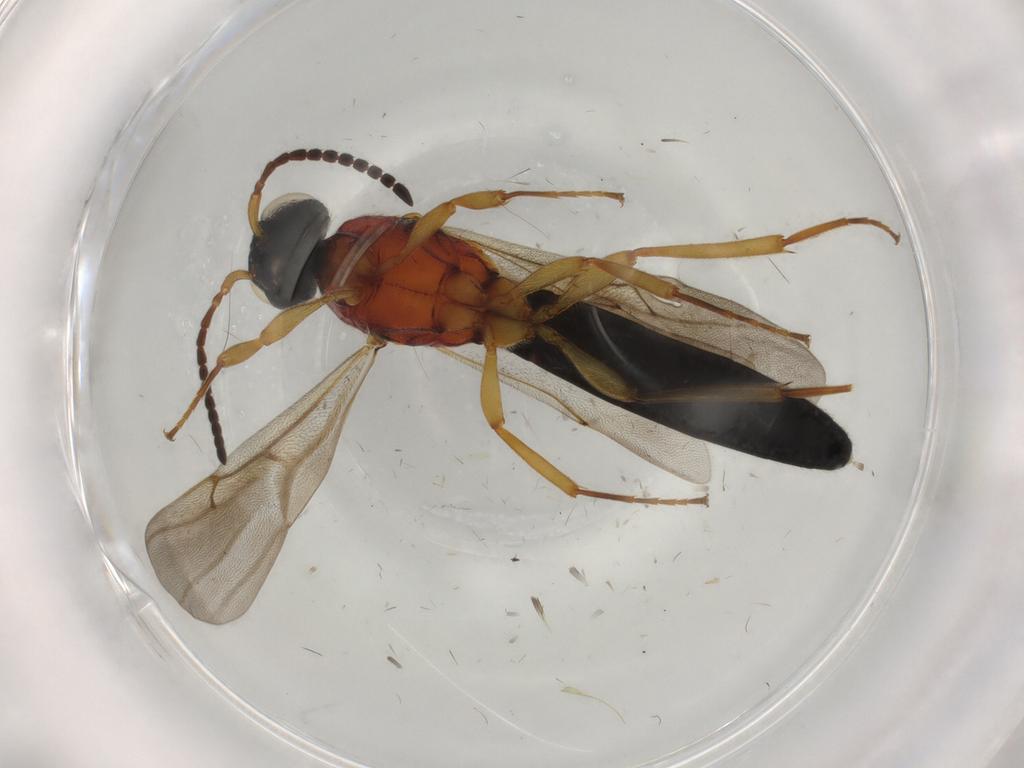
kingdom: Animalia
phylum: Arthropoda
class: Insecta
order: Hymenoptera
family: Scelionidae
